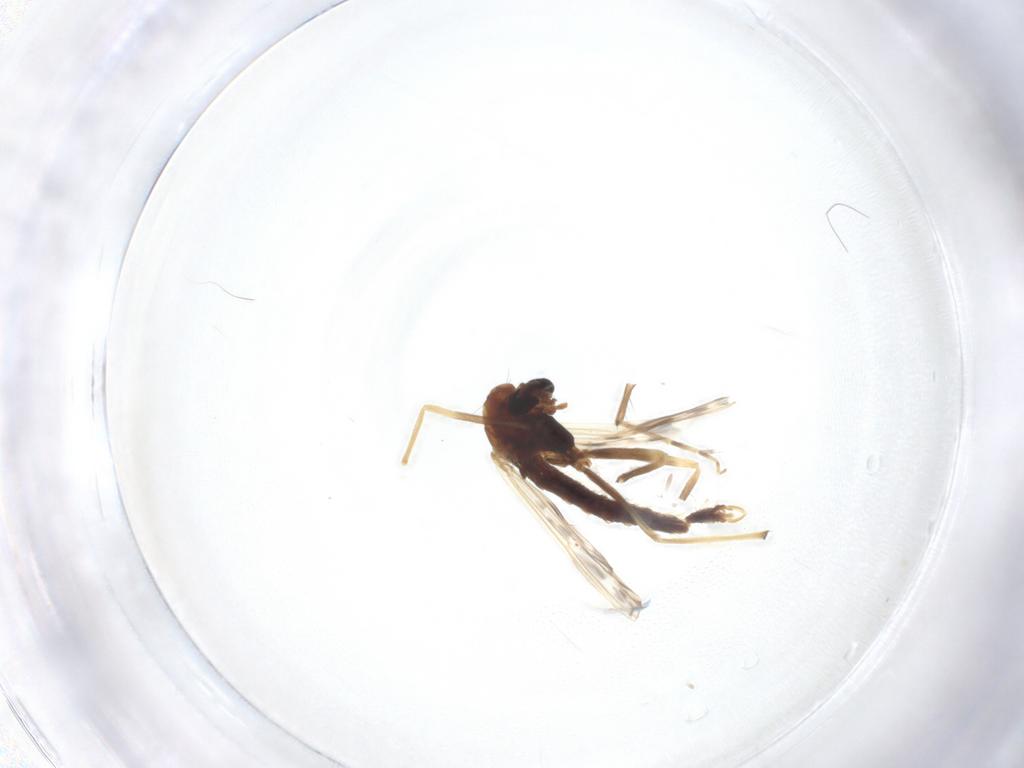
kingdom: Animalia
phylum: Arthropoda
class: Insecta
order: Diptera
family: Chironomidae
